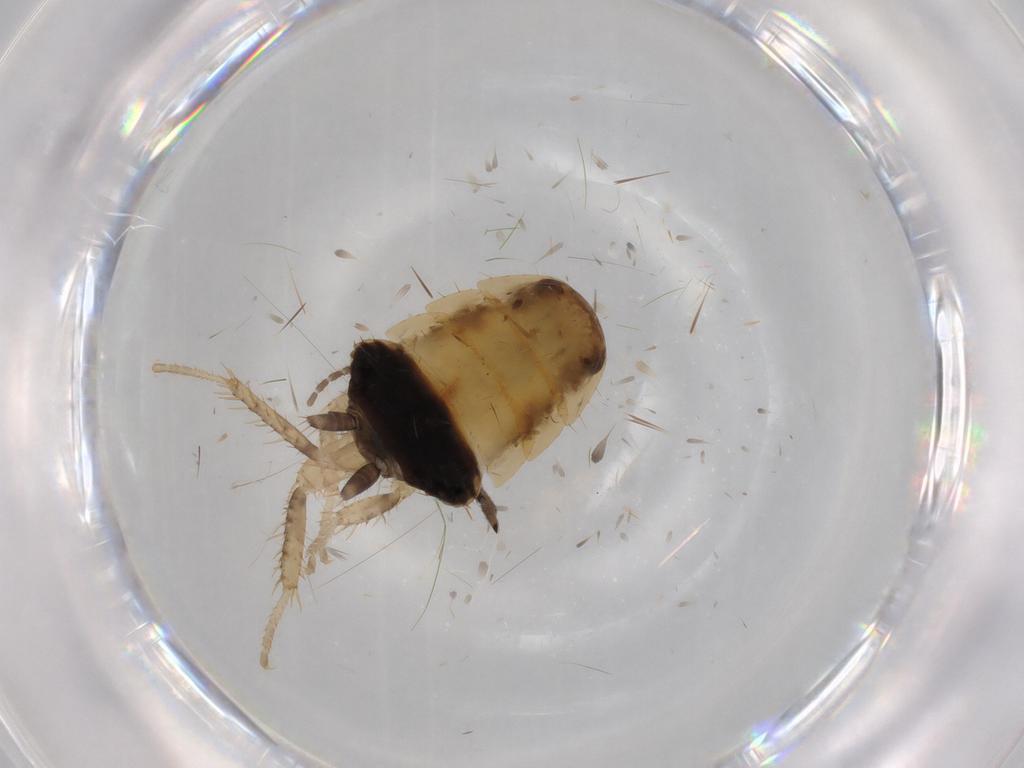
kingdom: Animalia
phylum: Arthropoda
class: Insecta
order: Blattodea
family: Ectobiidae
